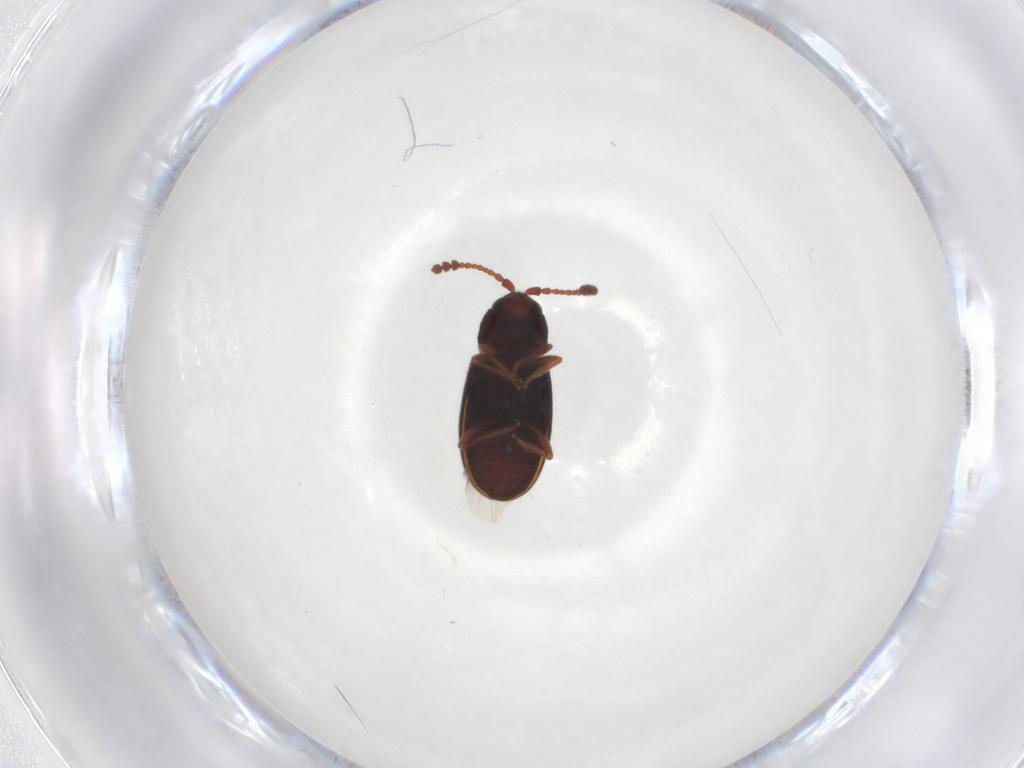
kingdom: Animalia
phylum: Arthropoda
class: Insecta
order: Coleoptera
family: Cryptophagidae
